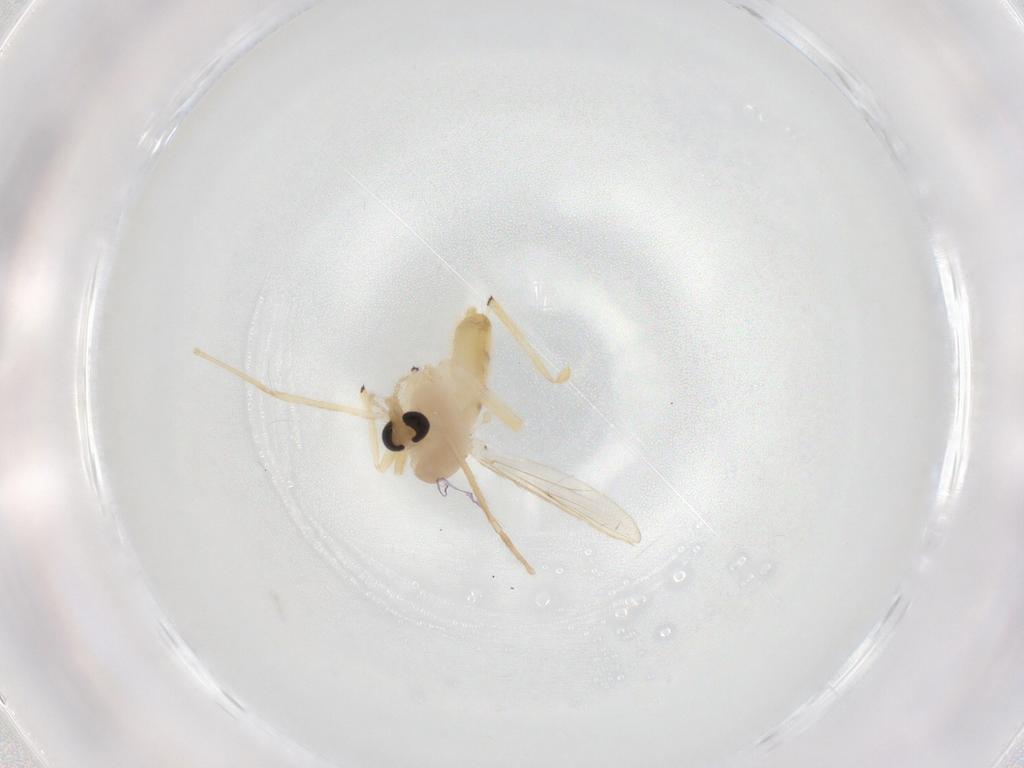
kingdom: Animalia
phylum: Arthropoda
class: Insecta
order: Diptera
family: Chironomidae
